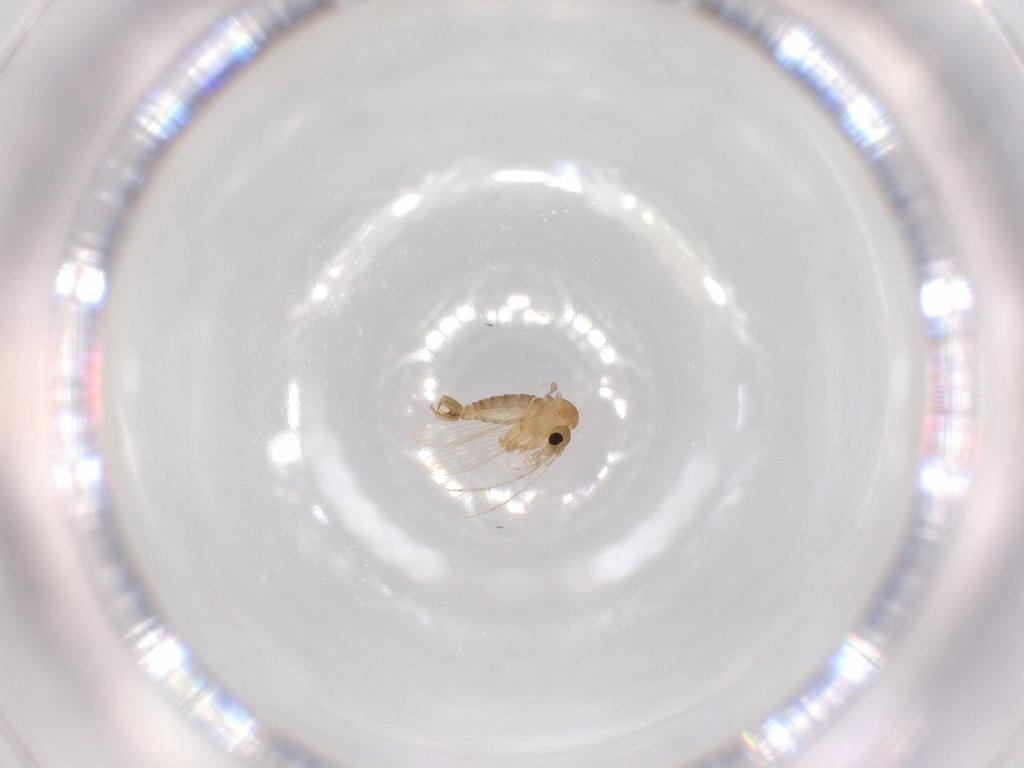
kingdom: Animalia
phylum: Arthropoda
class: Insecta
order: Diptera
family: Psychodidae
